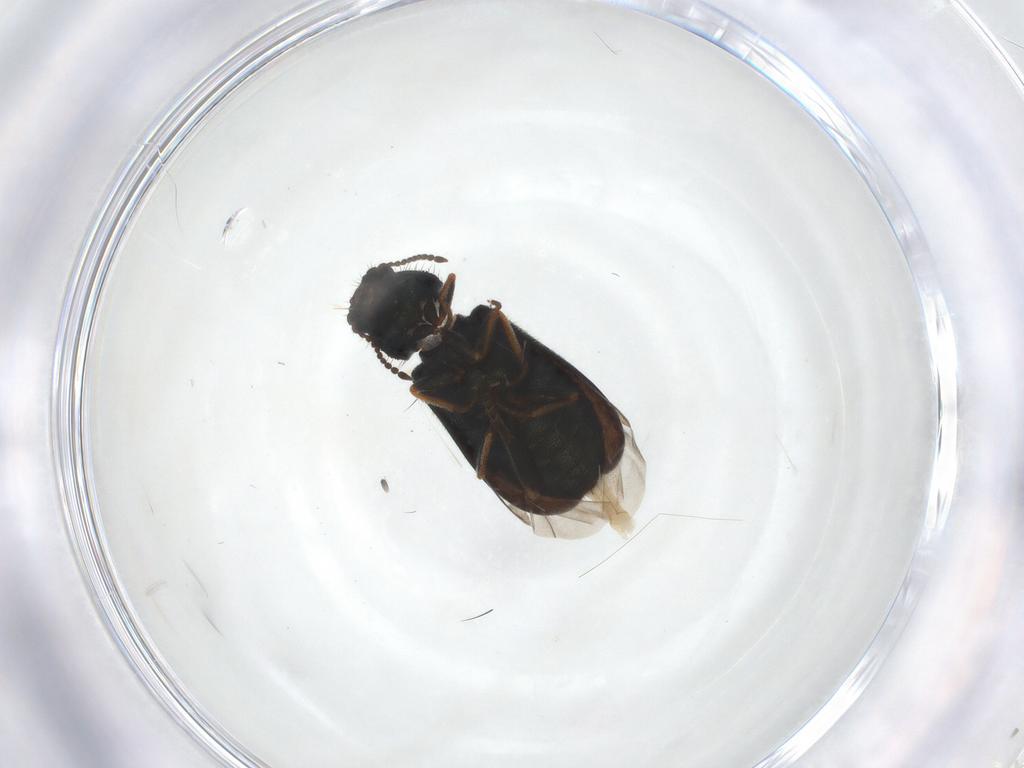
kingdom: Animalia
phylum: Arthropoda
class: Insecta
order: Coleoptera
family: Melyridae
